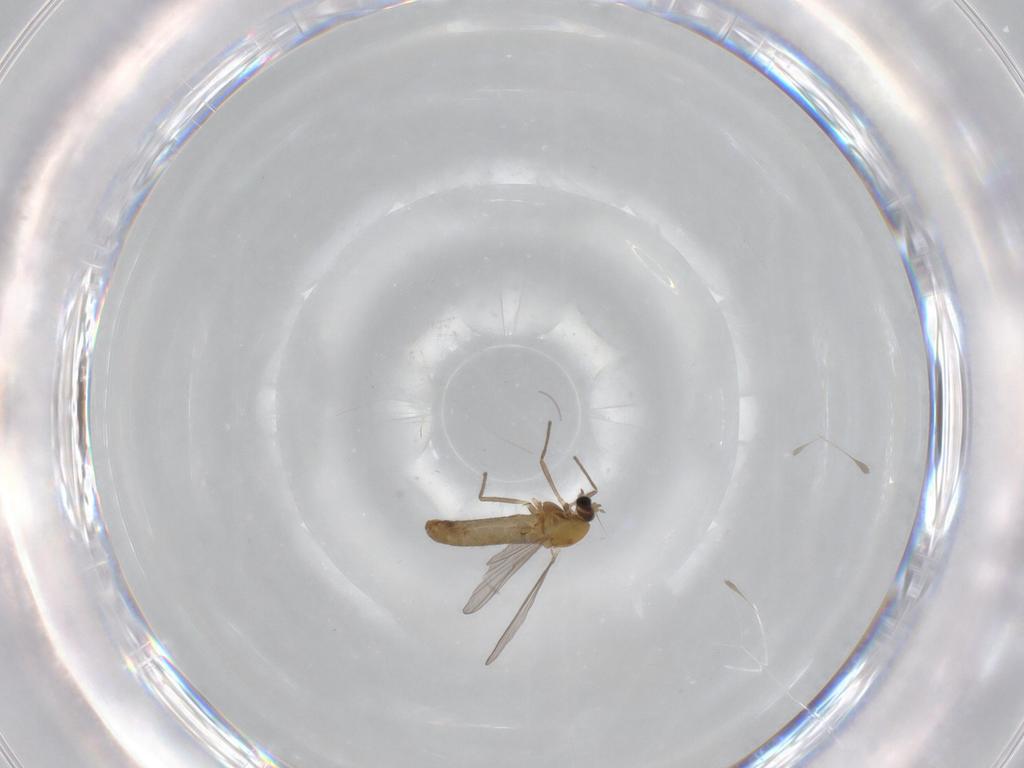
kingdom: Animalia
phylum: Arthropoda
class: Insecta
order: Diptera
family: Chironomidae
